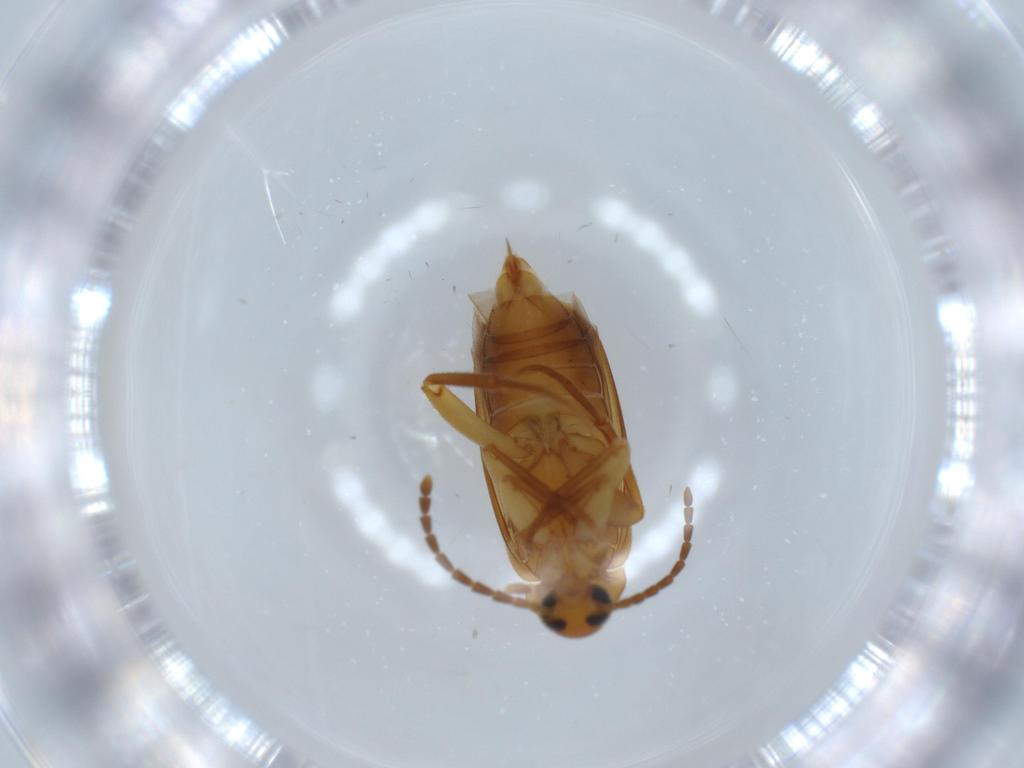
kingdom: Animalia
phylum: Arthropoda
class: Insecta
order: Coleoptera
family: Scraptiidae
